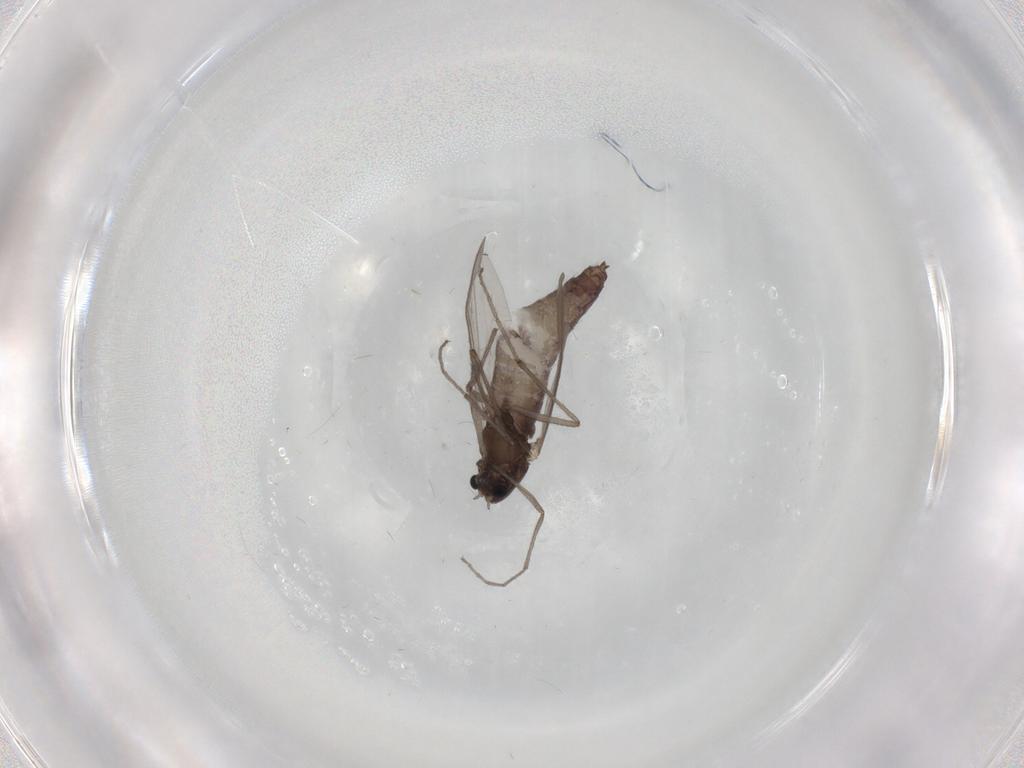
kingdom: Animalia
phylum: Arthropoda
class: Insecta
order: Diptera
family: Chironomidae
